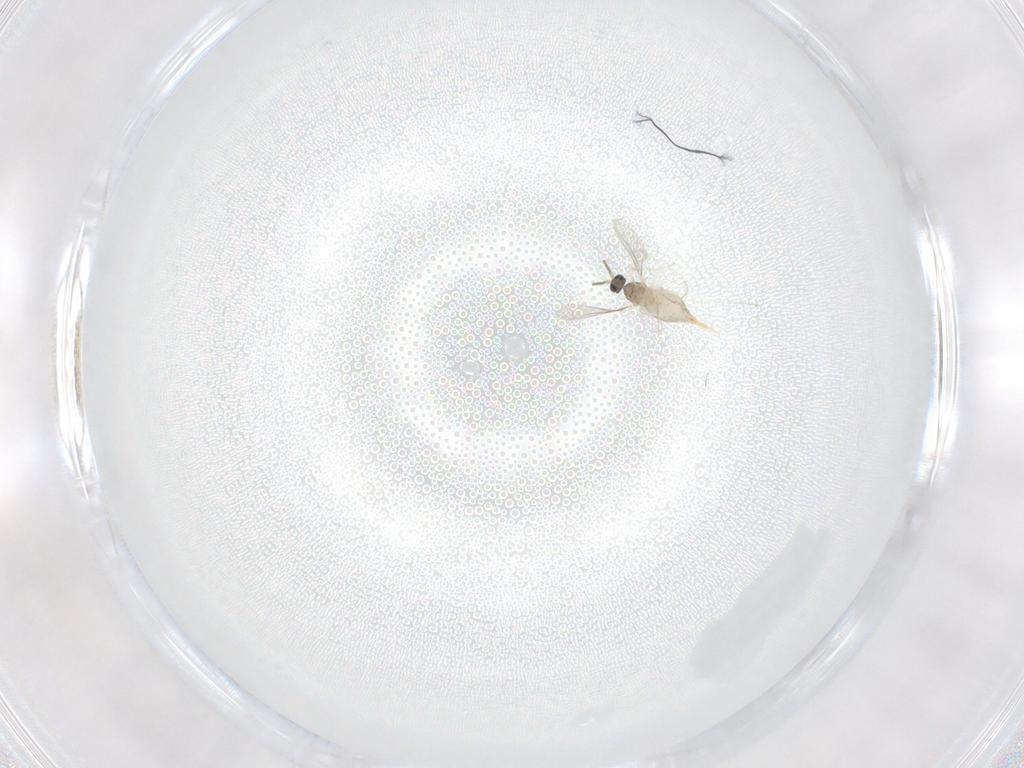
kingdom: Animalia
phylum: Arthropoda
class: Insecta
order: Diptera
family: Cecidomyiidae
